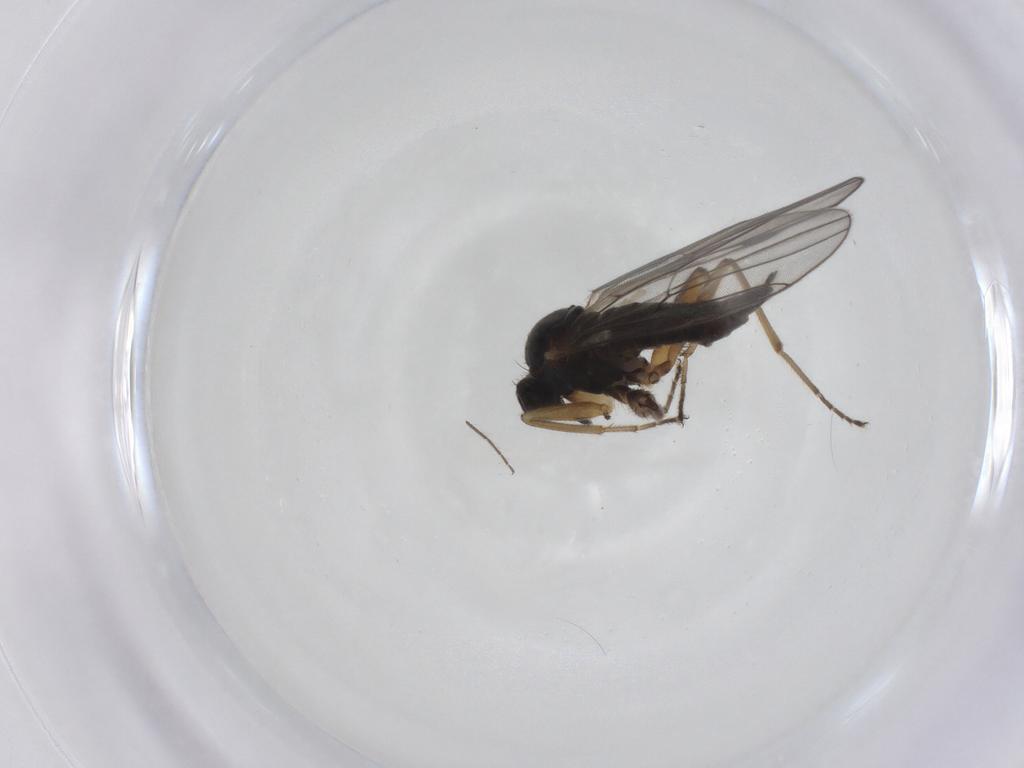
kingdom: Animalia
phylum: Arthropoda
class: Insecta
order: Diptera
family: Hybotidae
